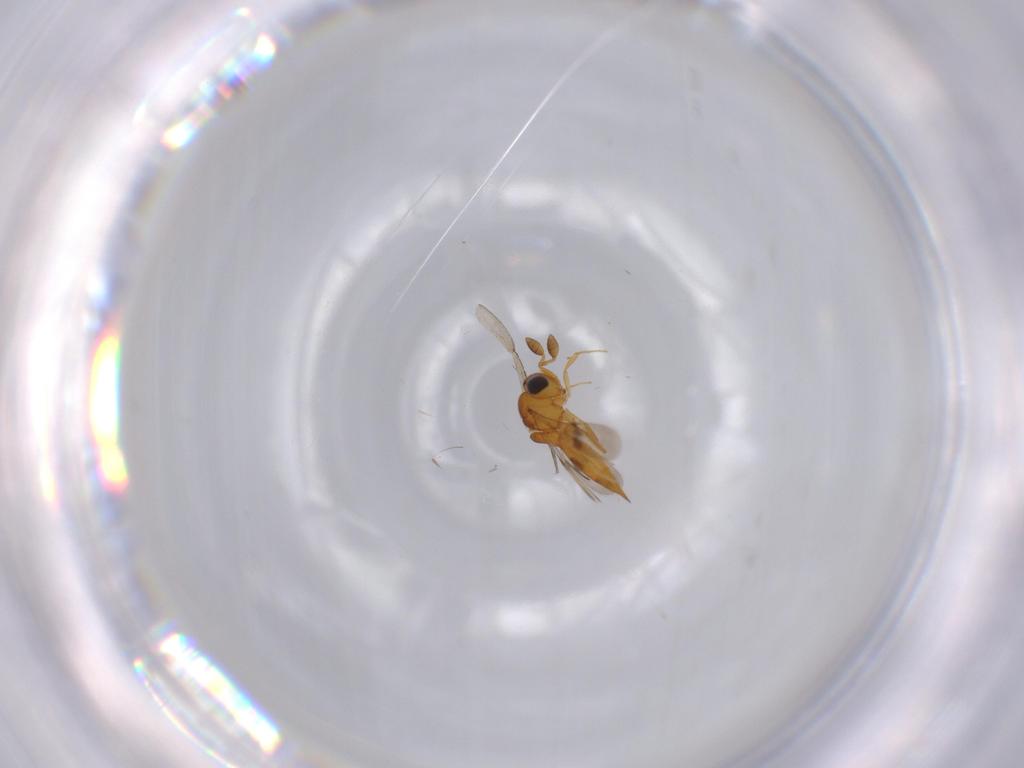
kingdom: Animalia
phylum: Arthropoda
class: Insecta
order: Hymenoptera
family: Scelionidae
